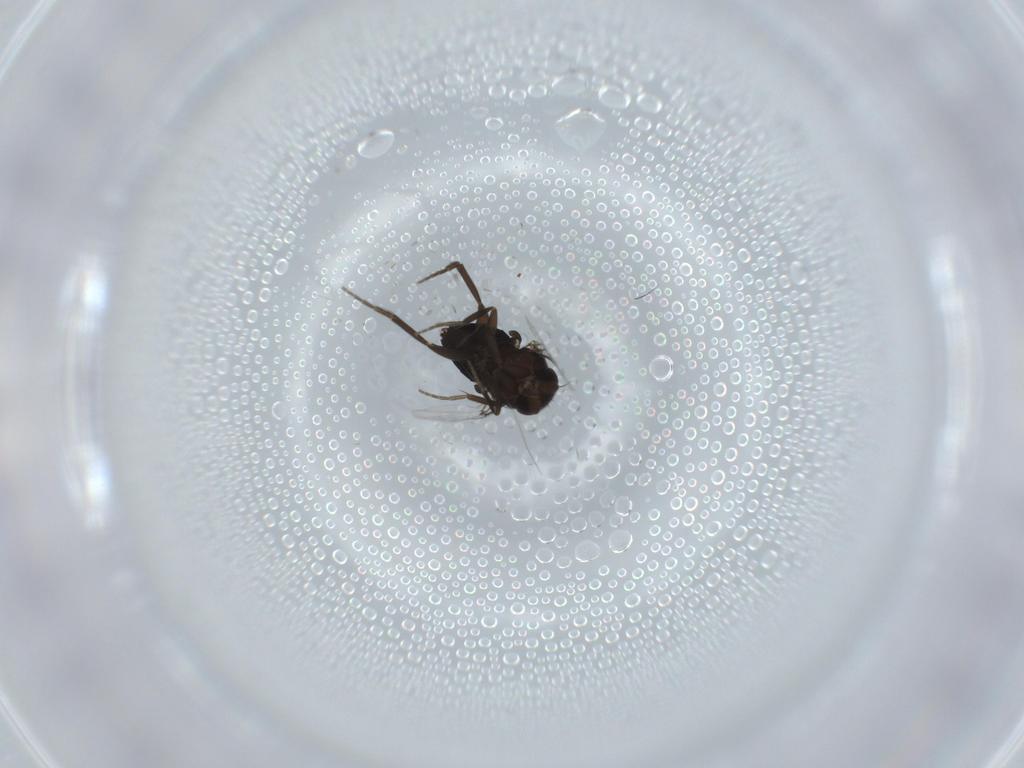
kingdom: Animalia
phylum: Arthropoda
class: Insecta
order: Diptera
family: Phoridae
